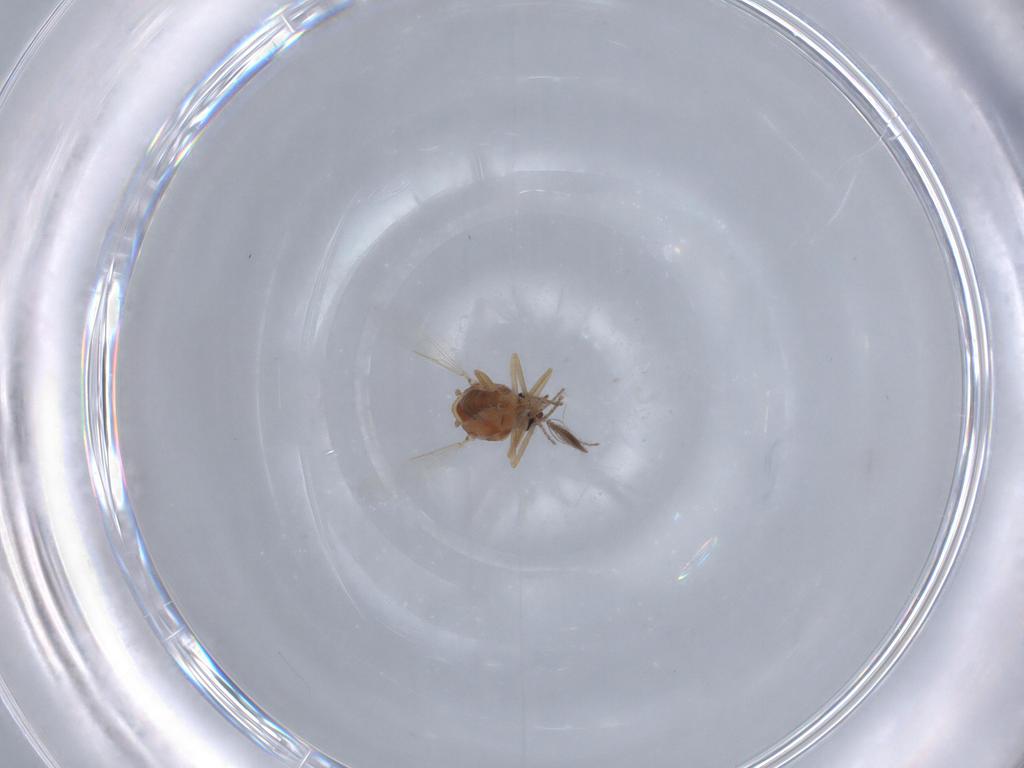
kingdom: Animalia
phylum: Arthropoda
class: Insecta
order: Diptera
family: Ceratopogonidae
